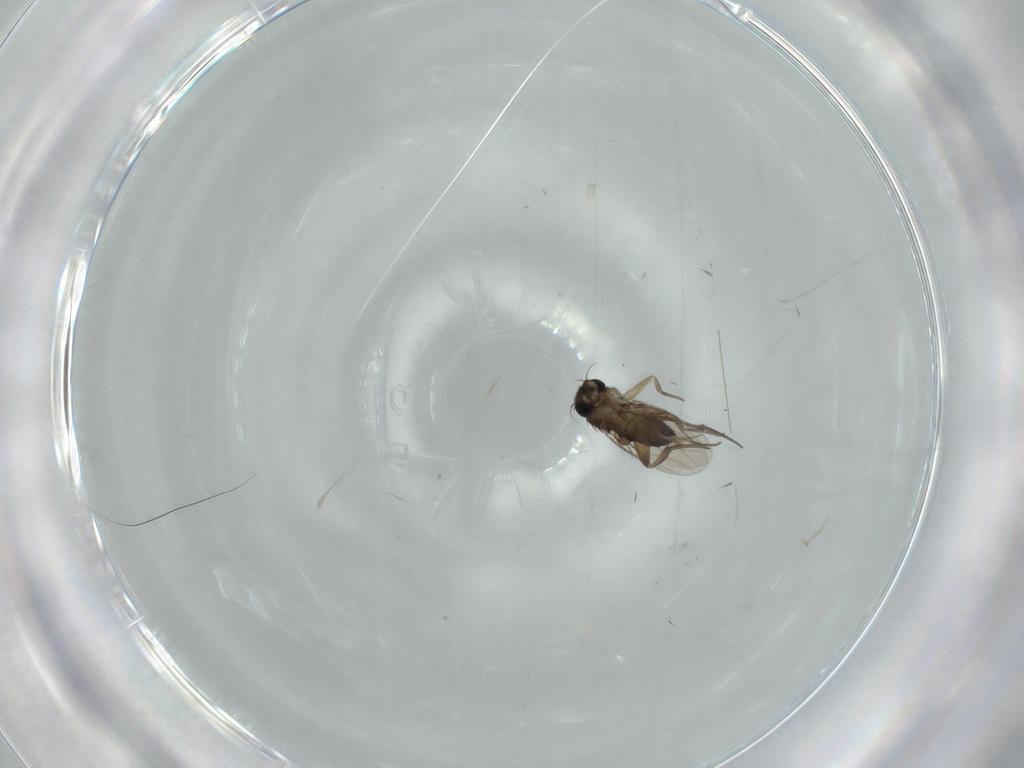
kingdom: Animalia
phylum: Arthropoda
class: Insecta
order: Diptera
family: Phoridae
